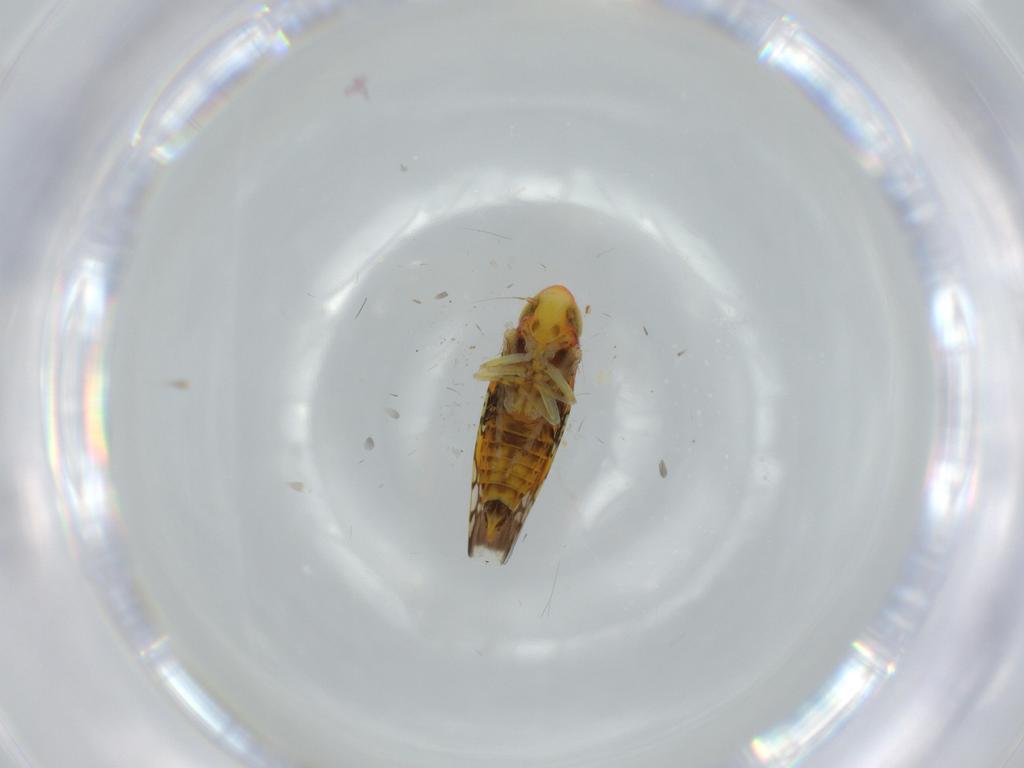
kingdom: Animalia
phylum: Arthropoda
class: Insecta
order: Hemiptera
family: Cicadellidae
